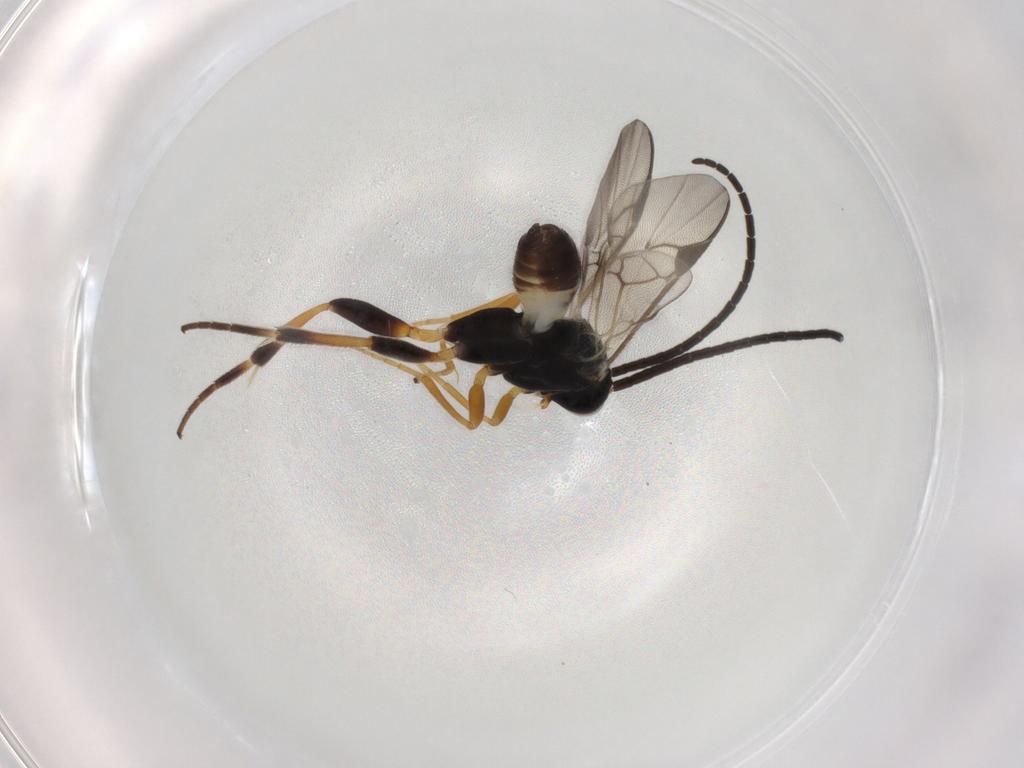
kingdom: Animalia
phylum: Arthropoda
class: Insecta
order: Hymenoptera
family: Braconidae
